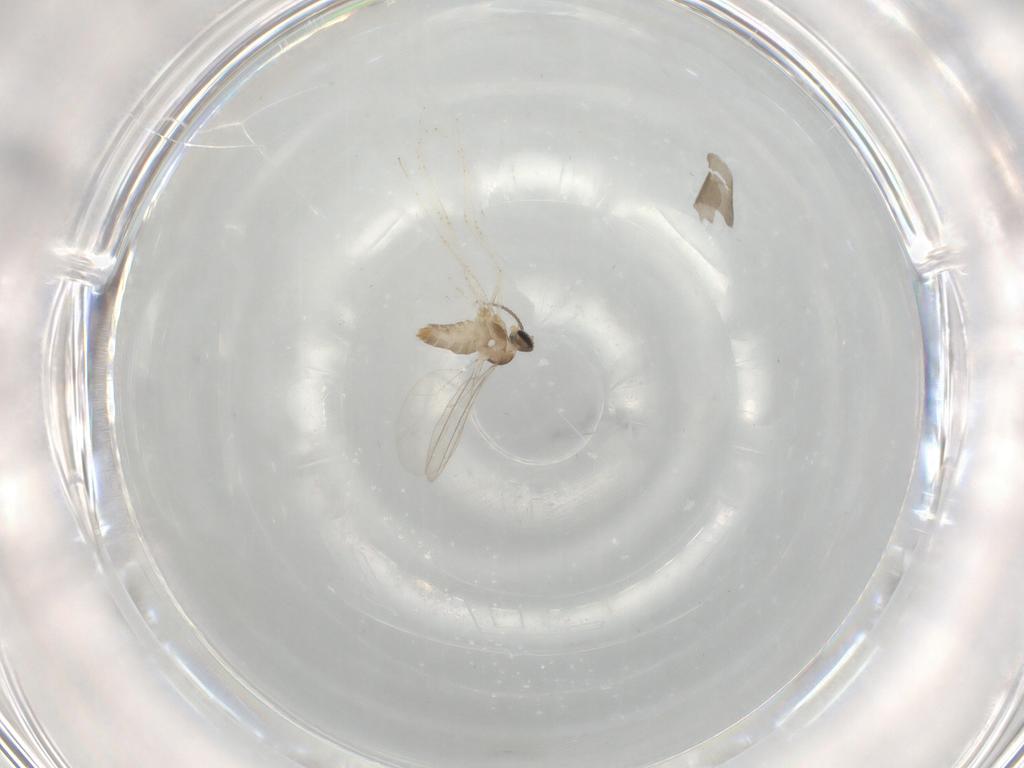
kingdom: Animalia
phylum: Arthropoda
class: Insecta
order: Diptera
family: Cecidomyiidae
